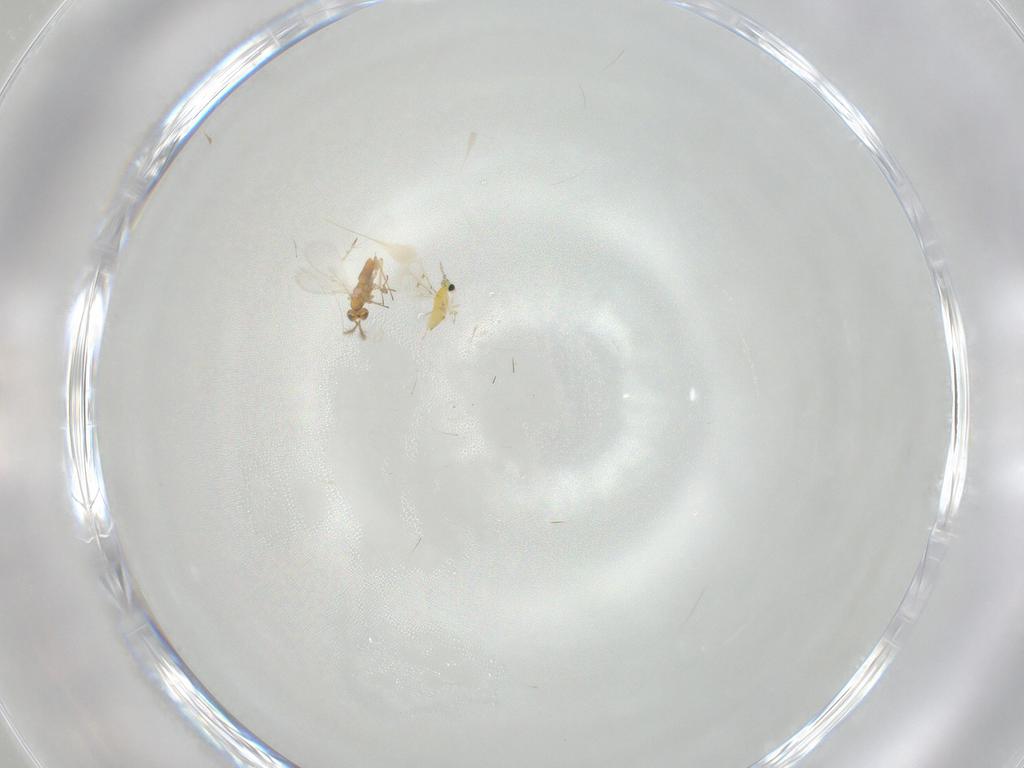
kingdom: Animalia
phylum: Arthropoda
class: Insecta
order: Hymenoptera
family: Aphelinidae
